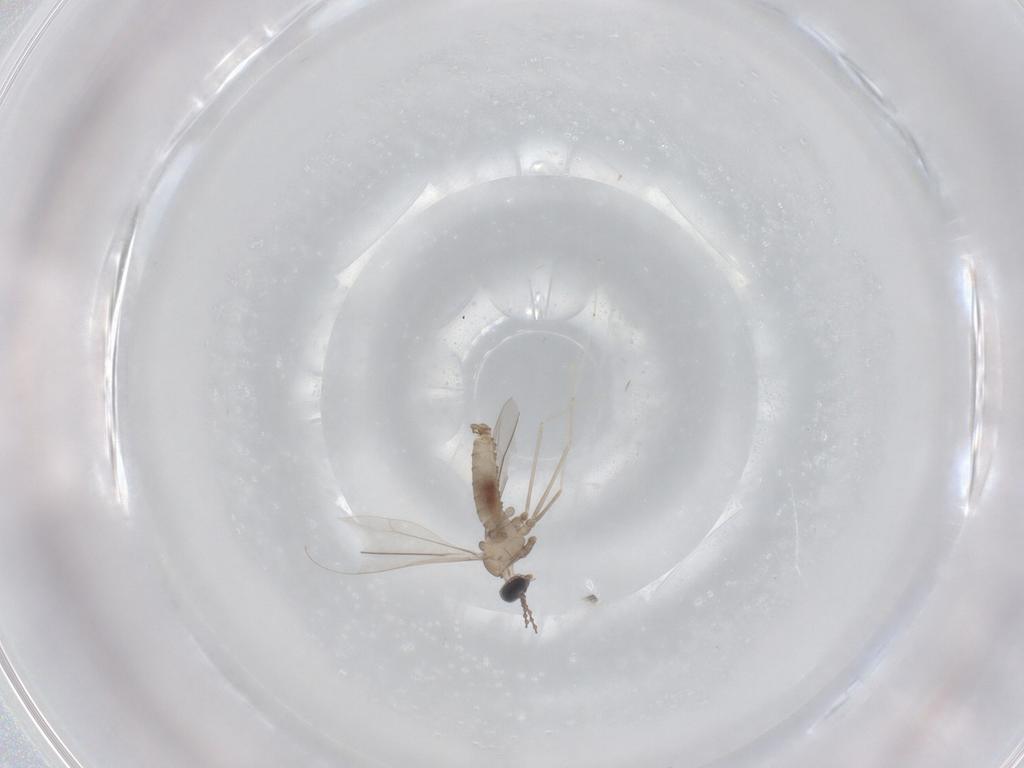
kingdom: Animalia
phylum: Arthropoda
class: Insecta
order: Diptera
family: Cecidomyiidae
